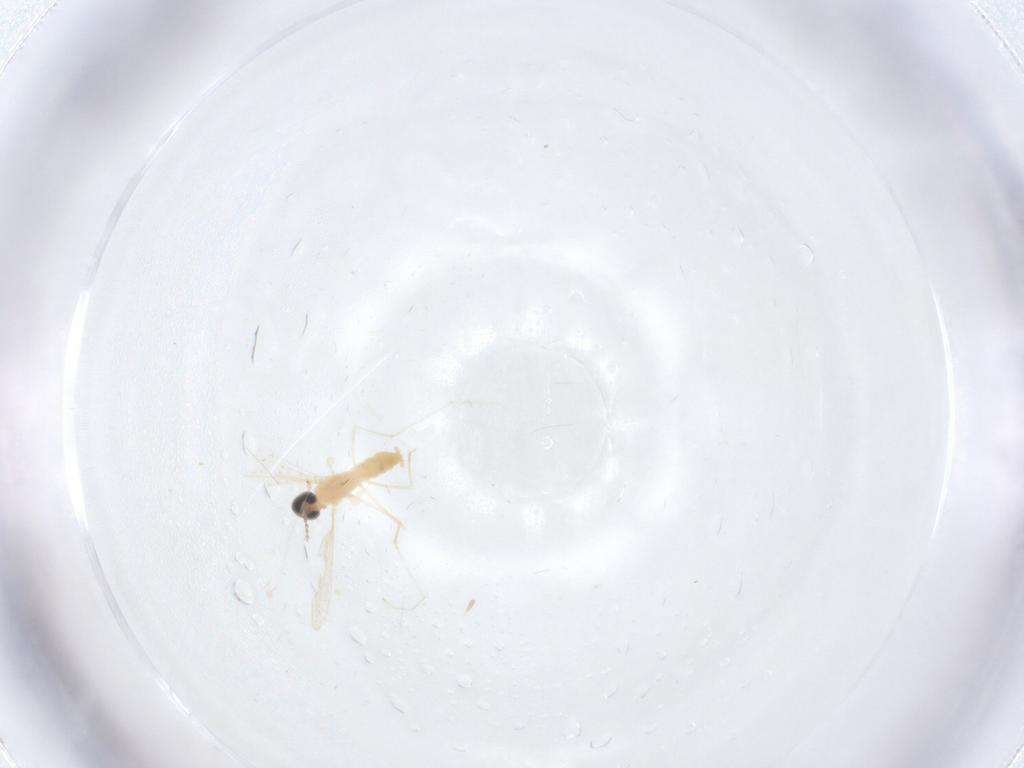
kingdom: Animalia
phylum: Arthropoda
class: Insecta
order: Diptera
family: Cecidomyiidae
